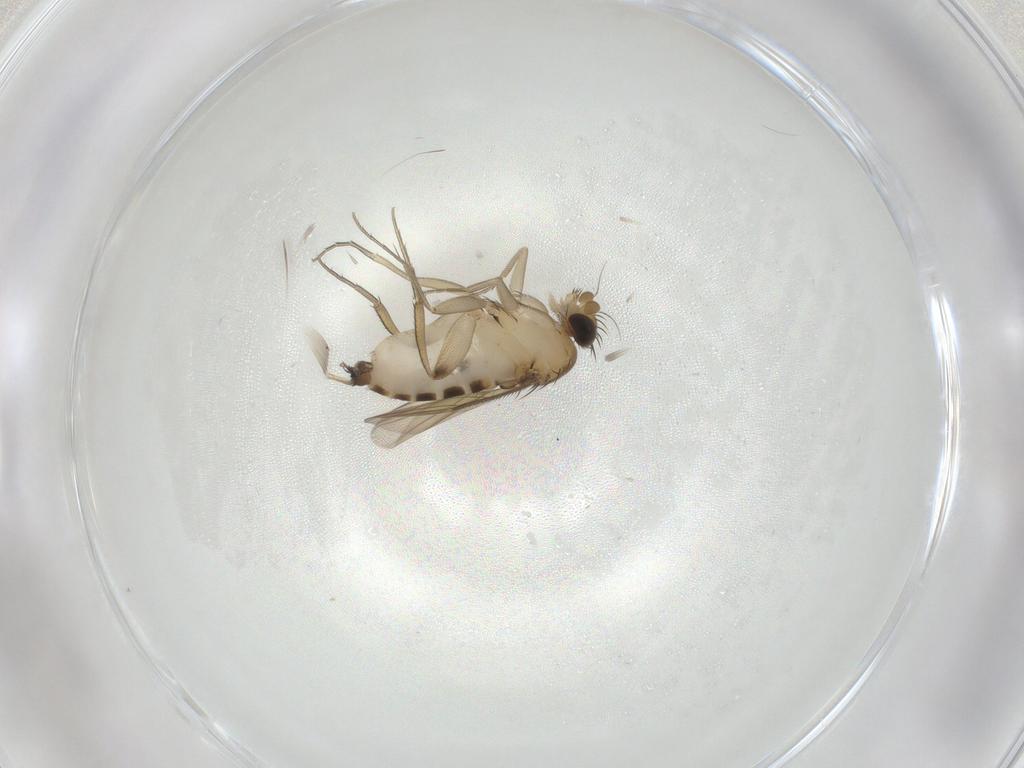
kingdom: Animalia
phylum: Arthropoda
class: Insecta
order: Diptera
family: Phoridae
